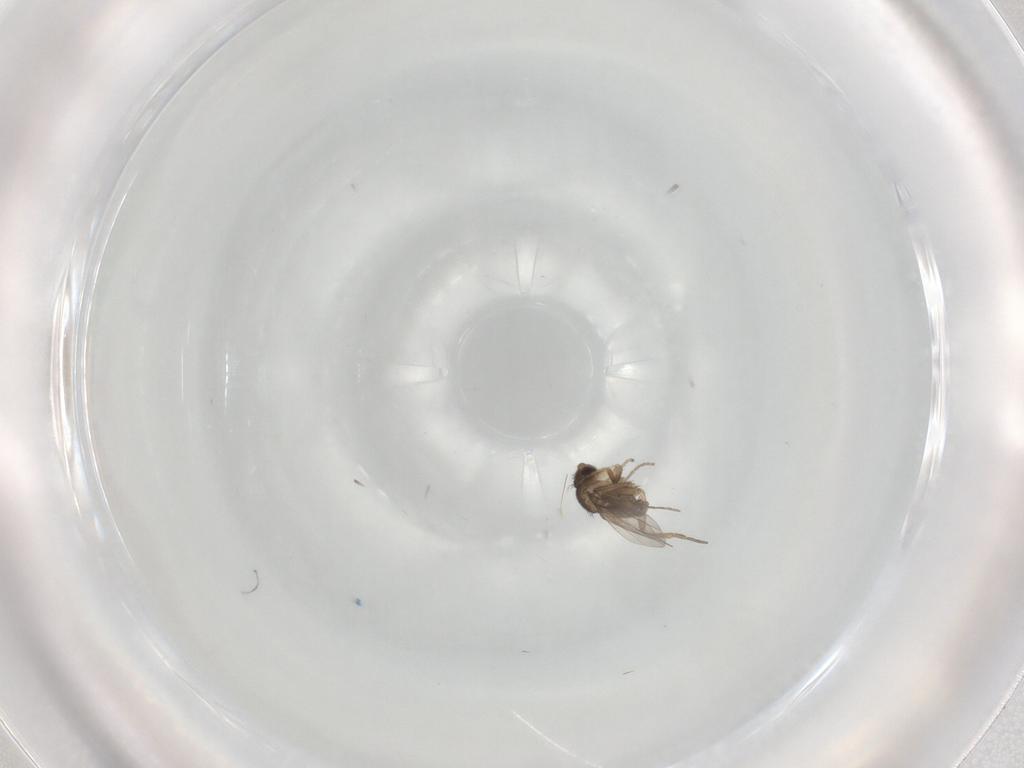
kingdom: Animalia
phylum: Arthropoda
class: Insecta
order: Diptera
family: Phoridae
